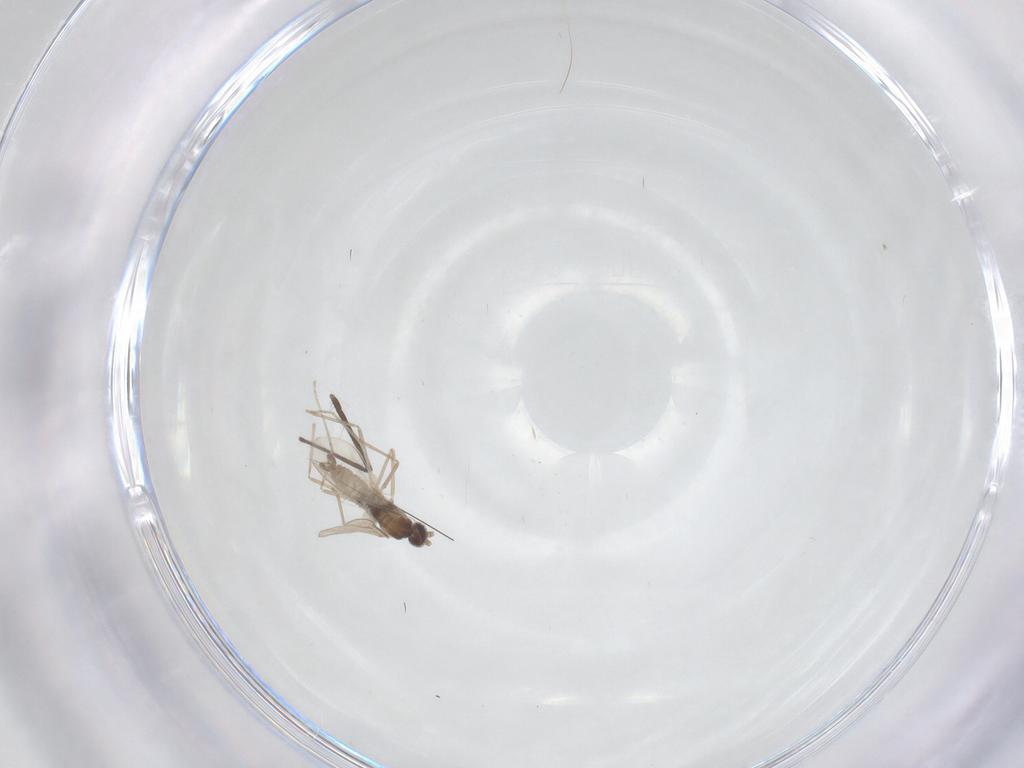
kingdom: Animalia
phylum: Arthropoda
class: Insecta
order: Diptera
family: Cecidomyiidae
